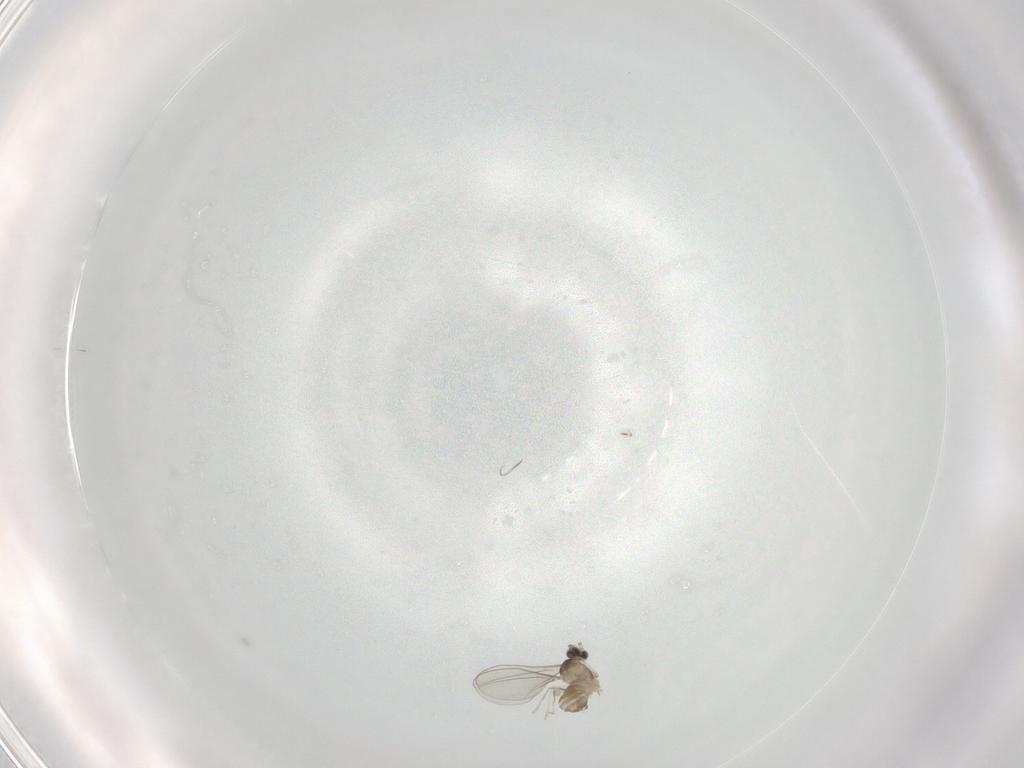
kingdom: Animalia
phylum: Arthropoda
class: Insecta
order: Diptera
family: Cecidomyiidae
